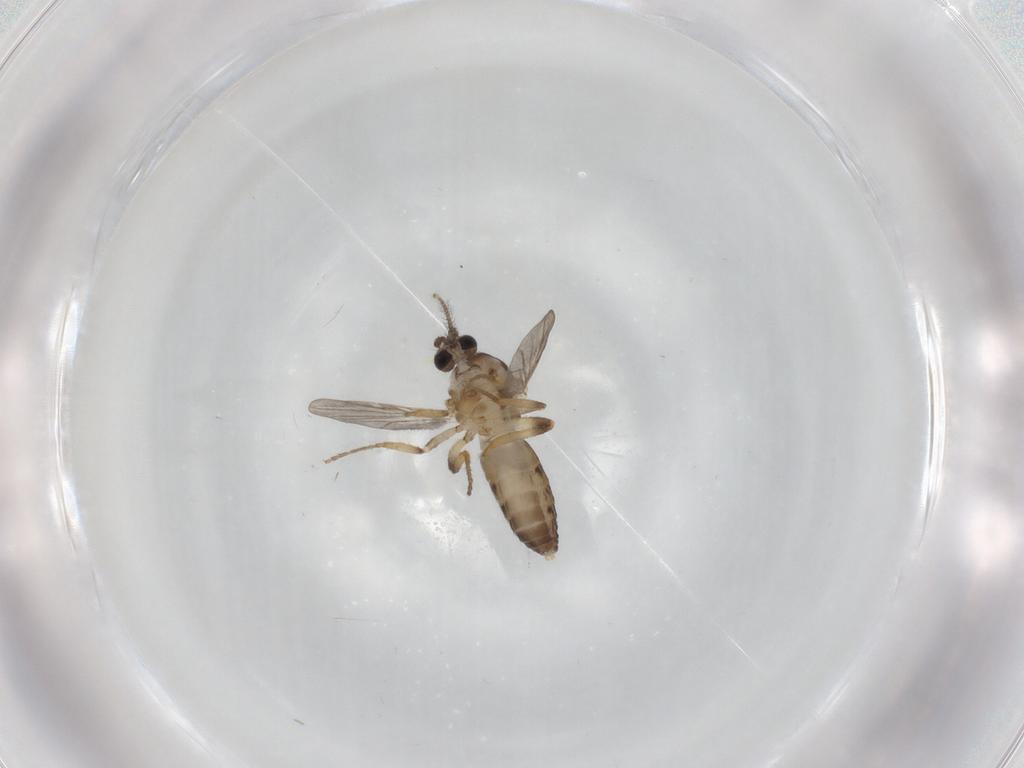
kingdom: Animalia
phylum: Arthropoda
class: Insecta
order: Diptera
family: Ceratopogonidae
